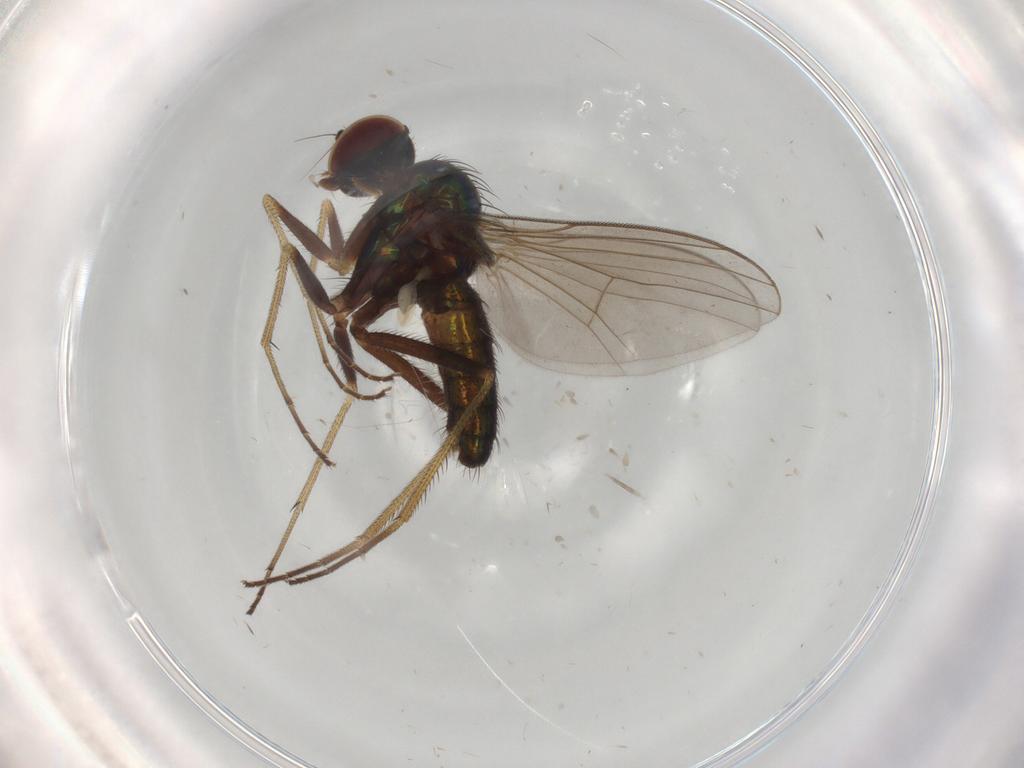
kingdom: Animalia
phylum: Arthropoda
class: Insecta
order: Diptera
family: Dolichopodidae
